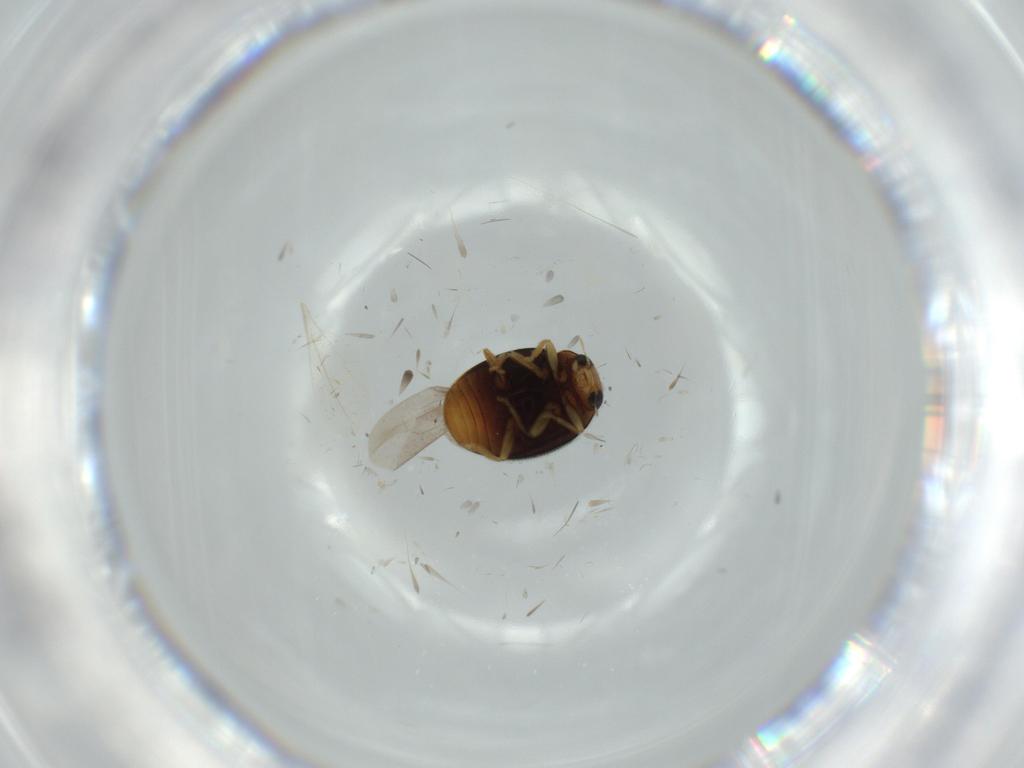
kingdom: Animalia
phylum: Arthropoda
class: Insecta
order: Coleoptera
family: Coccinellidae
